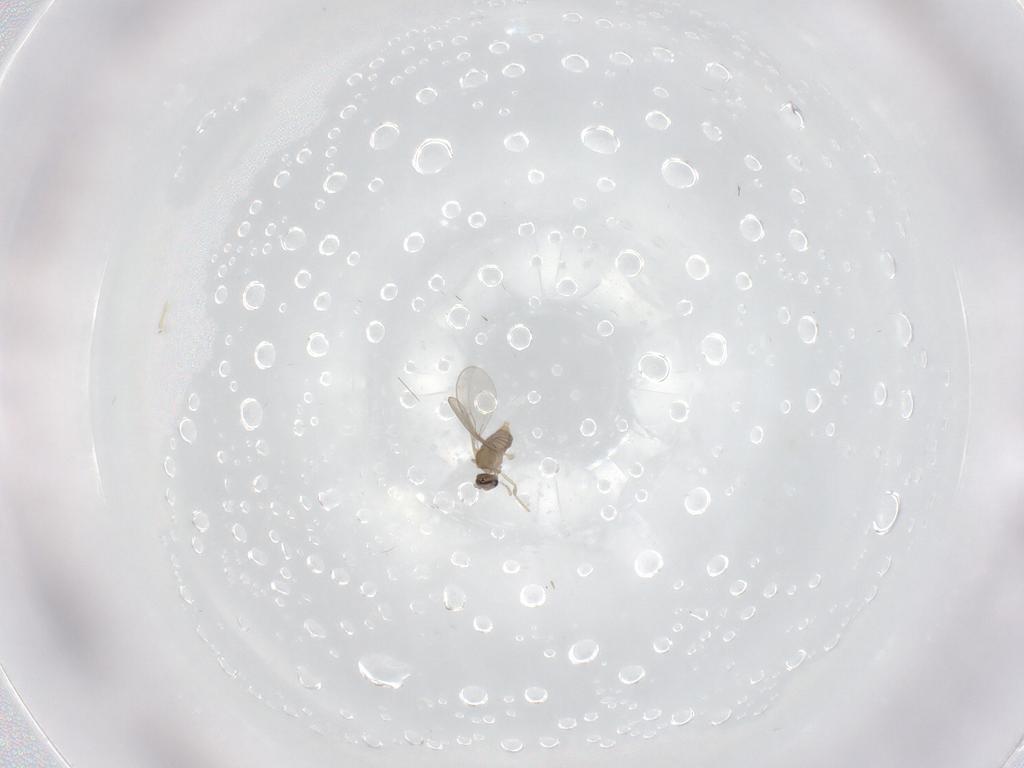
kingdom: Animalia
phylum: Arthropoda
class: Insecta
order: Diptera
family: Cecidomyiidae
